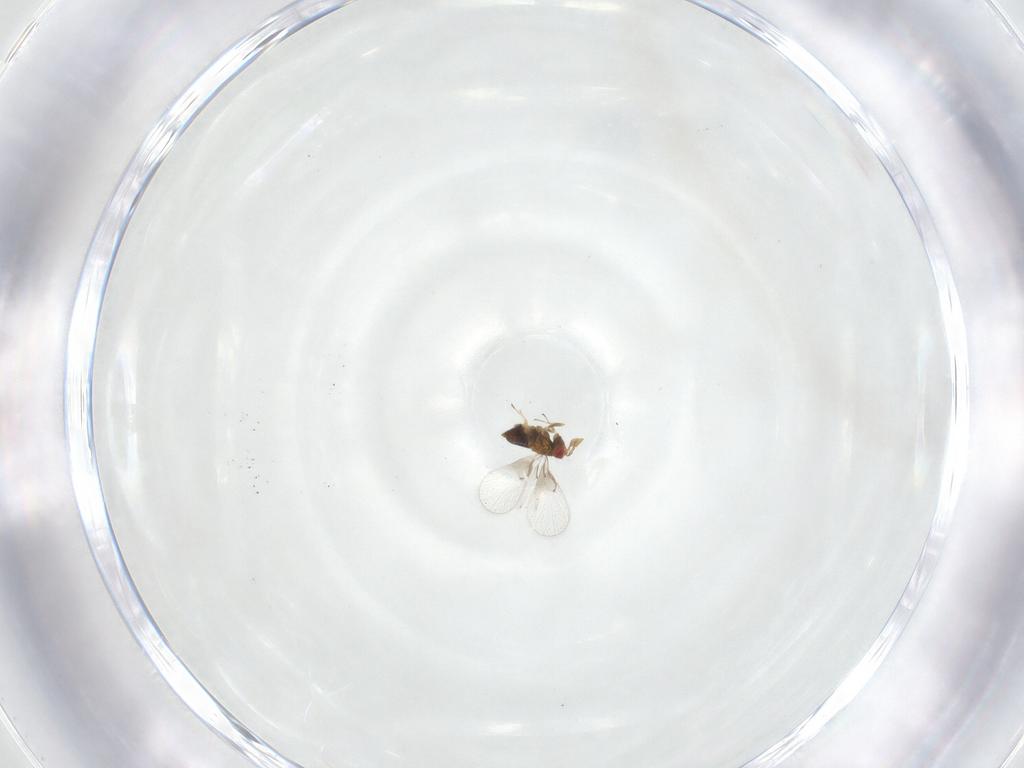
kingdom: Animalia
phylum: Arthropoda
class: Insecta
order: Hymenoptera
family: Trichogrammatidae
